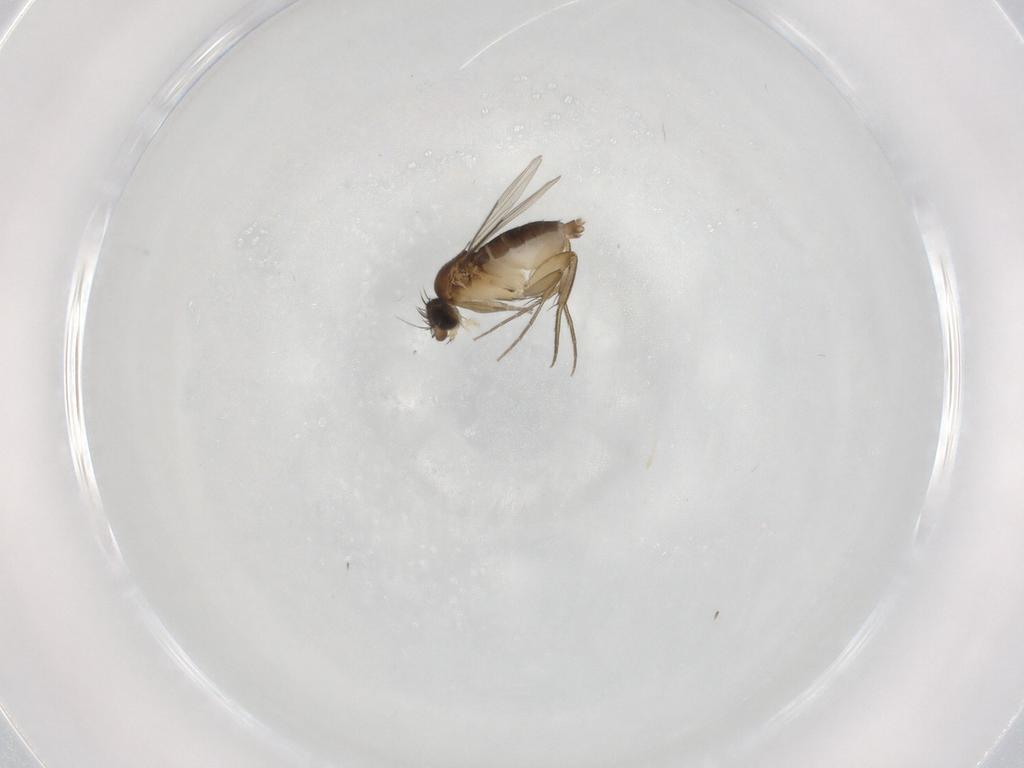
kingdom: Animalia
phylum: Arthropoda
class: Insecta
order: Diptera
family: Phoridae
